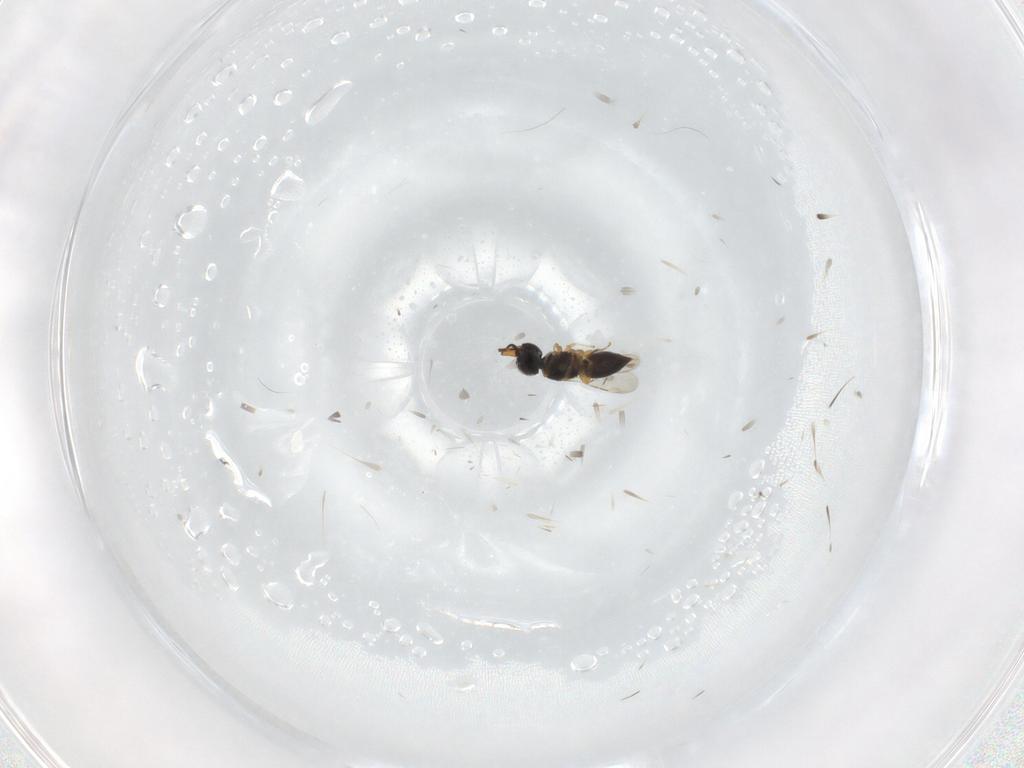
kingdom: Animalia
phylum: Arthropoda
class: Insecta
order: Hymenoptera
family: Ceraphronidae
